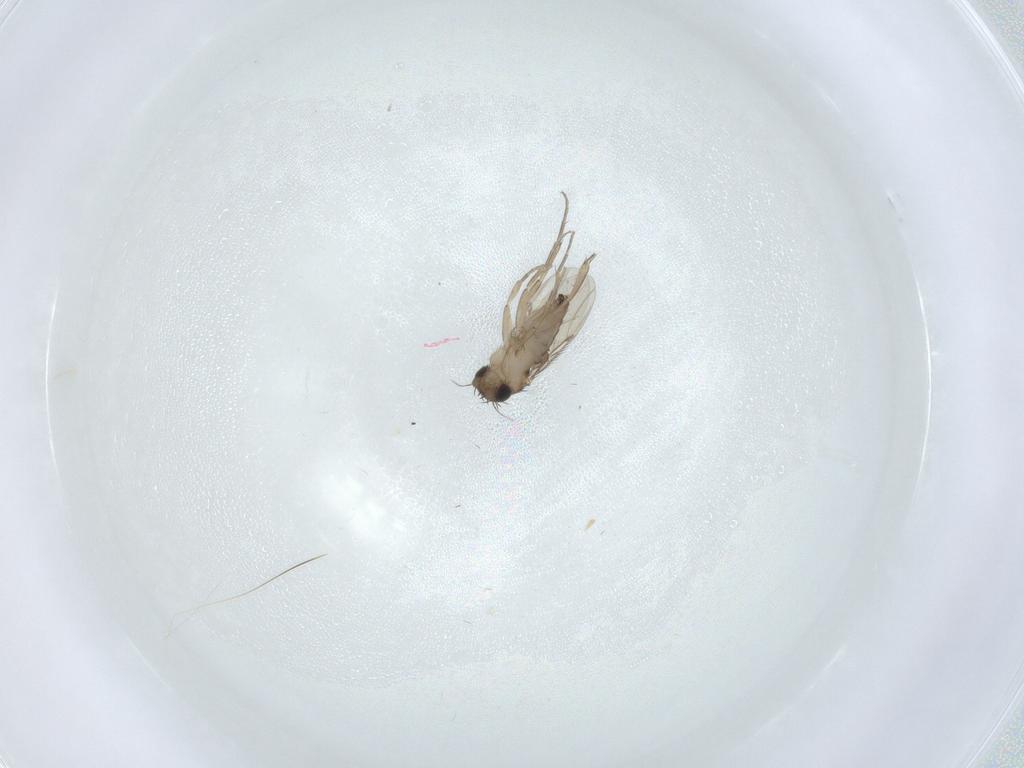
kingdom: Animalia
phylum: Arthropoda
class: Insecta
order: Diptera
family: Phoridae
